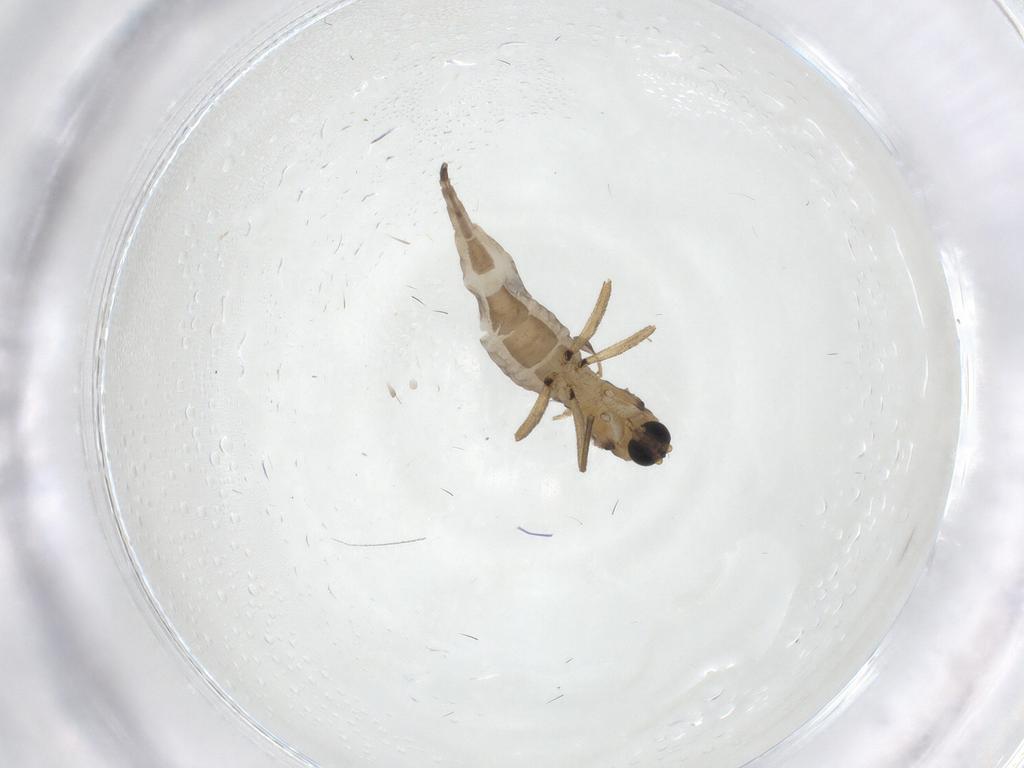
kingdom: Animalia
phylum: Arthropoda
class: Insecta
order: Diptera
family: Sciaridae
